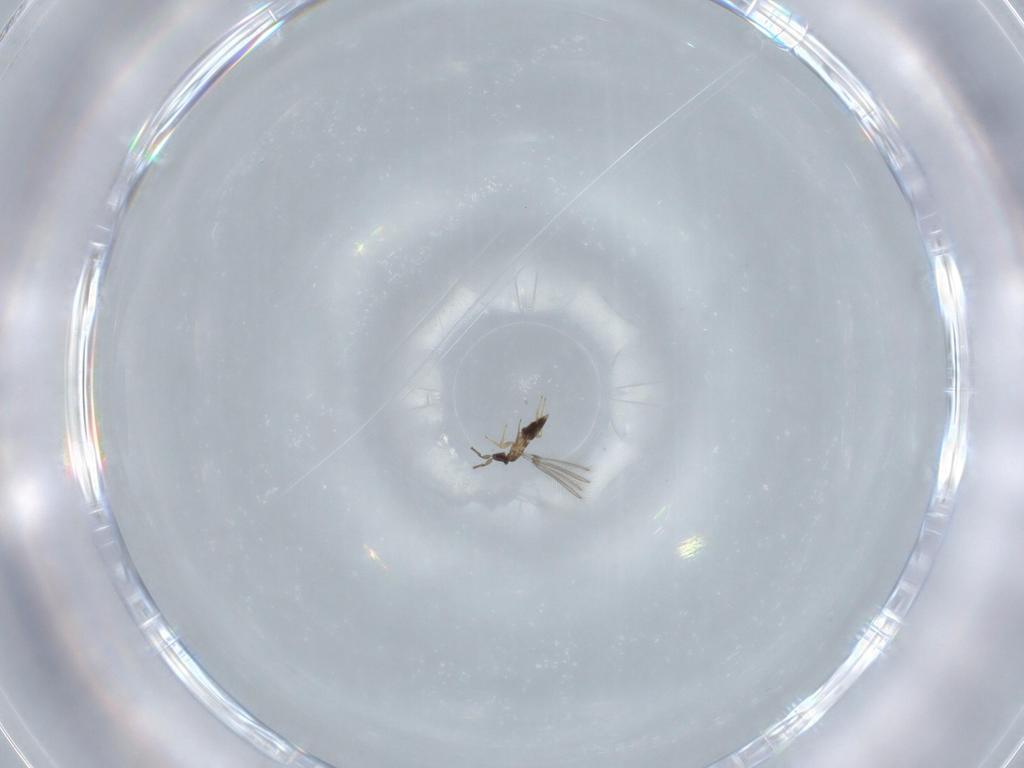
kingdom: Animalia
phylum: Arthropoda
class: Insecta
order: Hymenoptera
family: Mymaridae
